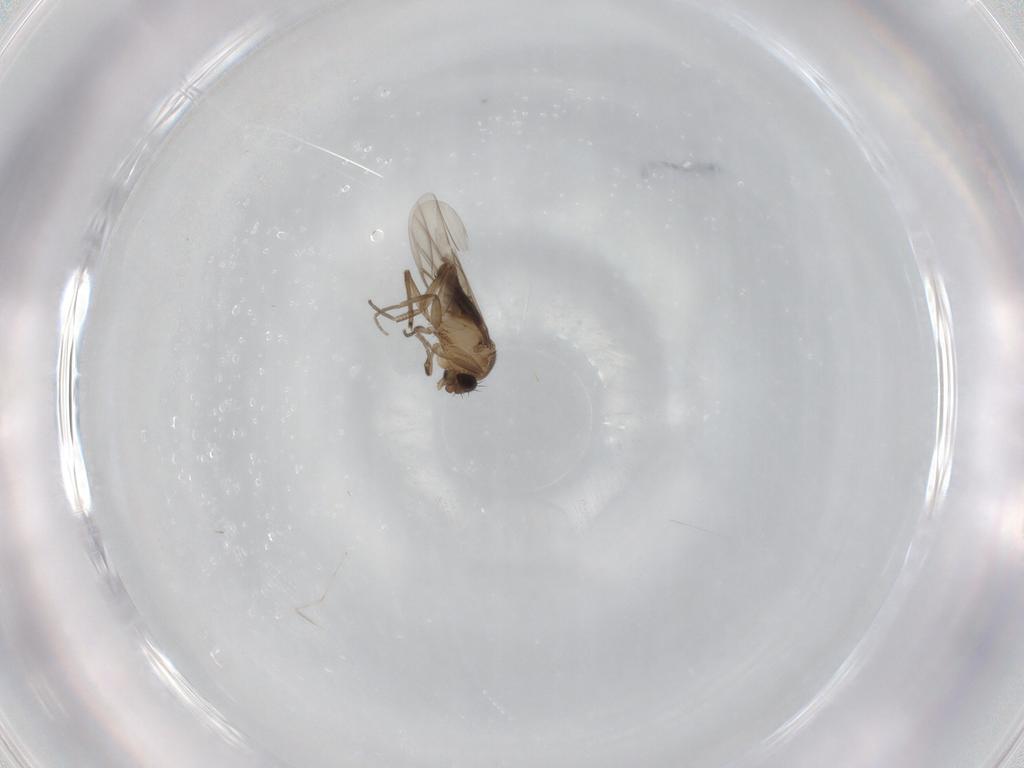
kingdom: Animalia
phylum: Arthropoda
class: Insecta
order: Diptera
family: Phoridae
